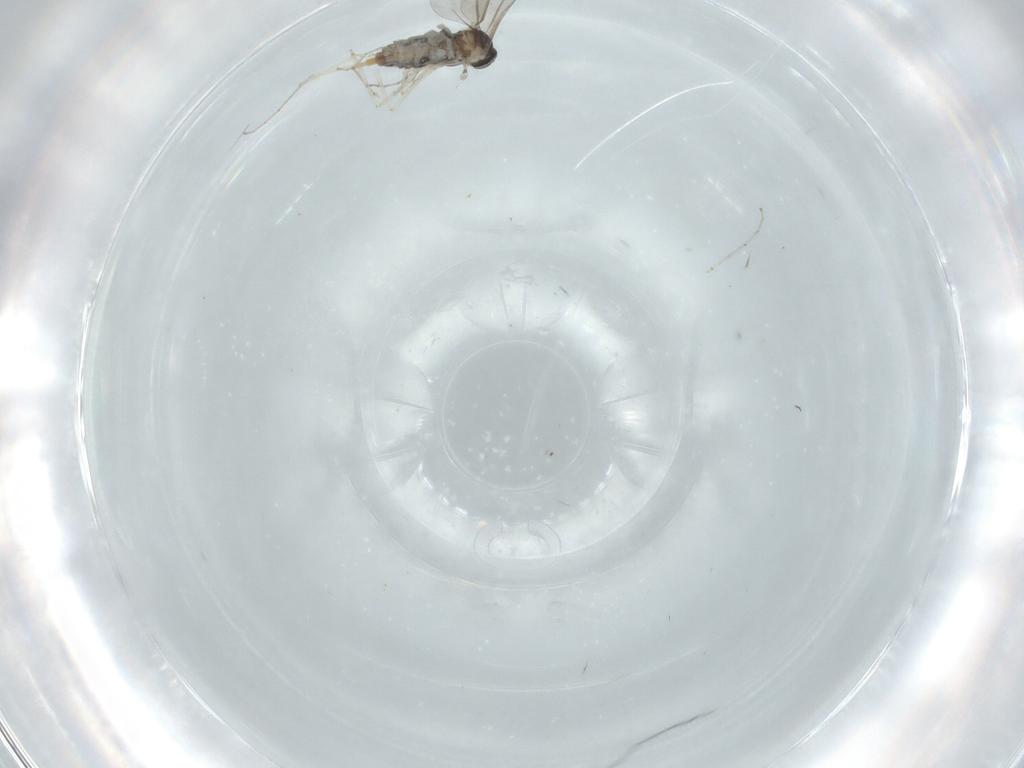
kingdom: Animalia
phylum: Arthropoda
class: Insecta
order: Diptera
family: Cecidomyiidae
